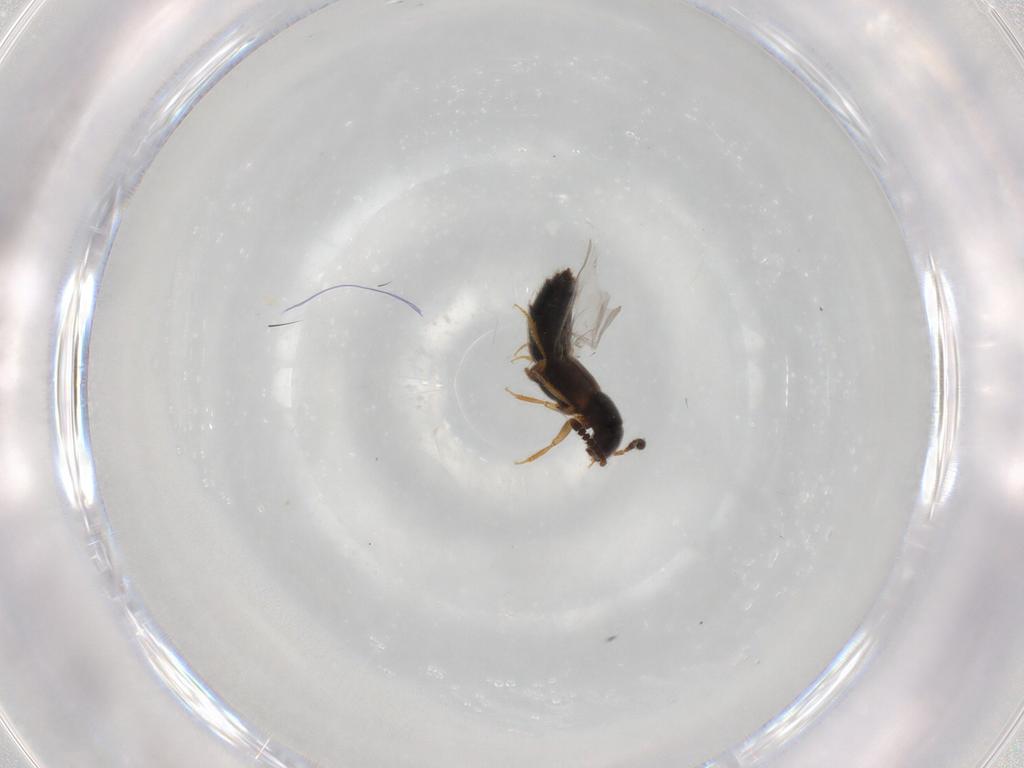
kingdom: Animalia
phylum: Arthropoda
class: Insecta
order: Coleoptera
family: Staphylinidae
